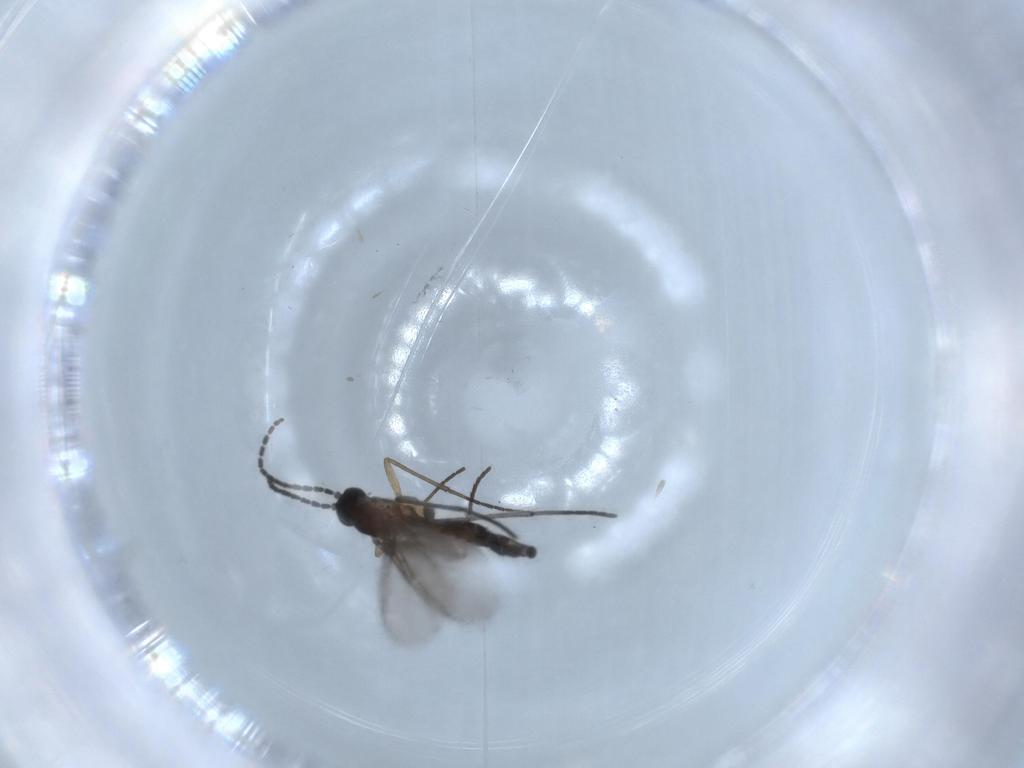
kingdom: Animalia
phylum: Arthropoda
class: Insecta
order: Diptera
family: Sciaridae
